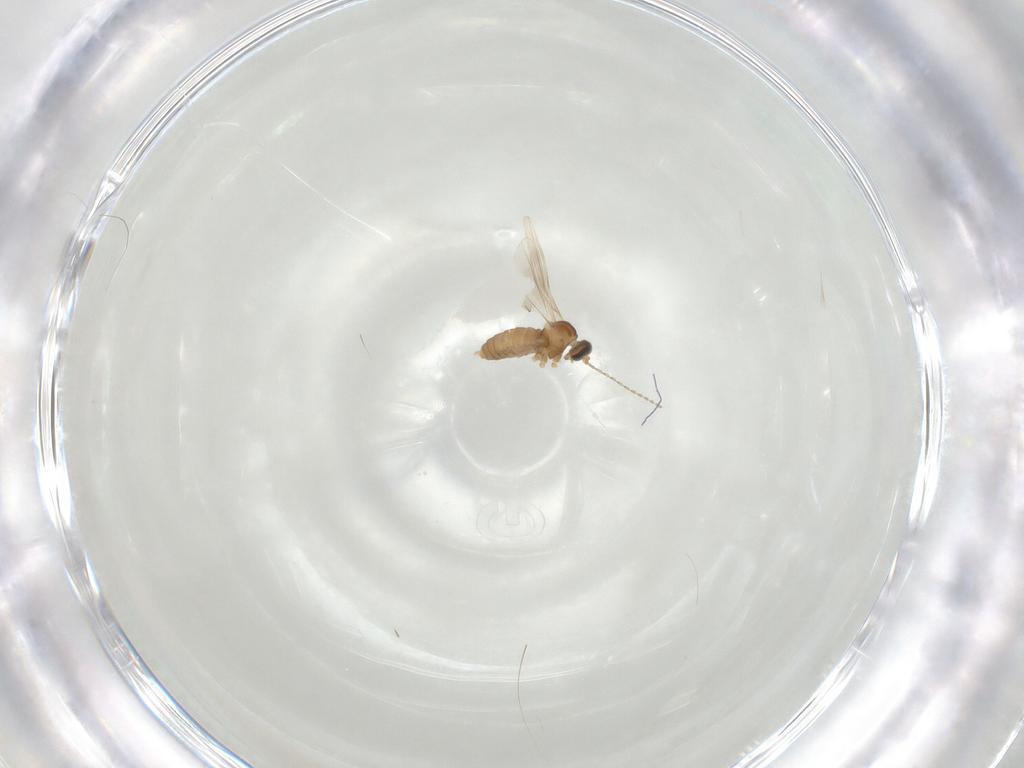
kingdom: Animalia
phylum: Arthropoda
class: Insecta
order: Diptera
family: Cecidomyiidae
